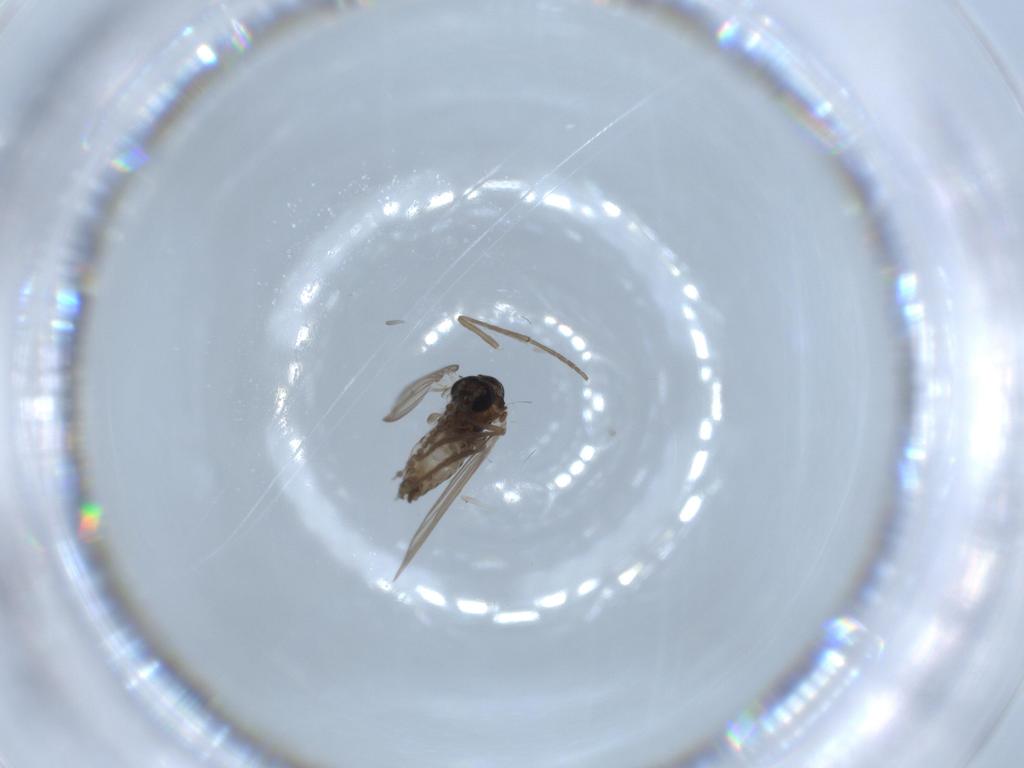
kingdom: Animalia
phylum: Arthropoda
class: Insecta
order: Diptera
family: Psychodidae
